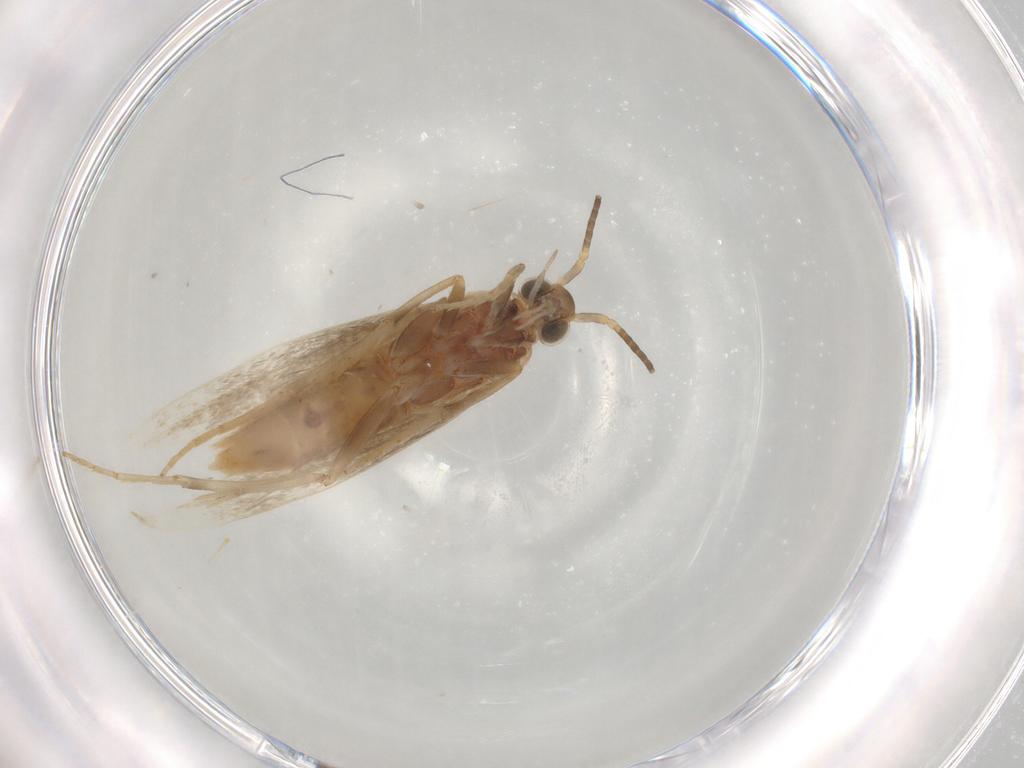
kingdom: Animalia
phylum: Arthropoda
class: Insecta
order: Lepidoptera
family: Coleophoridae
